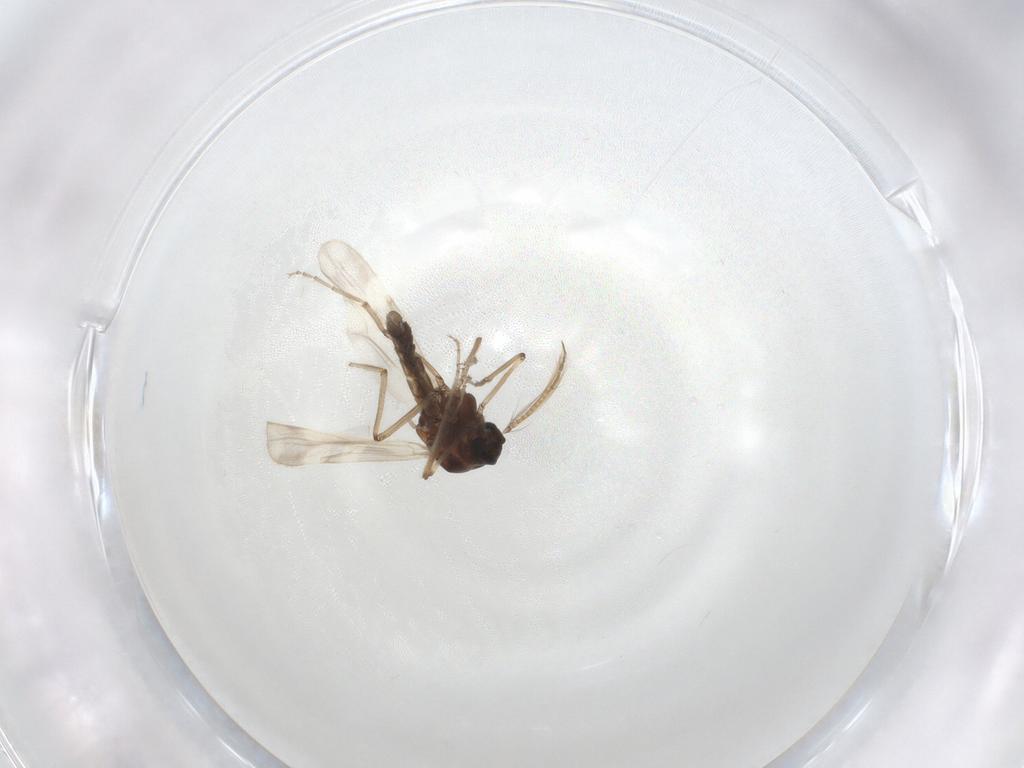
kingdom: Animalia
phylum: Arthropoda
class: Insecta
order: Diptera
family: Ceratopogonidae
